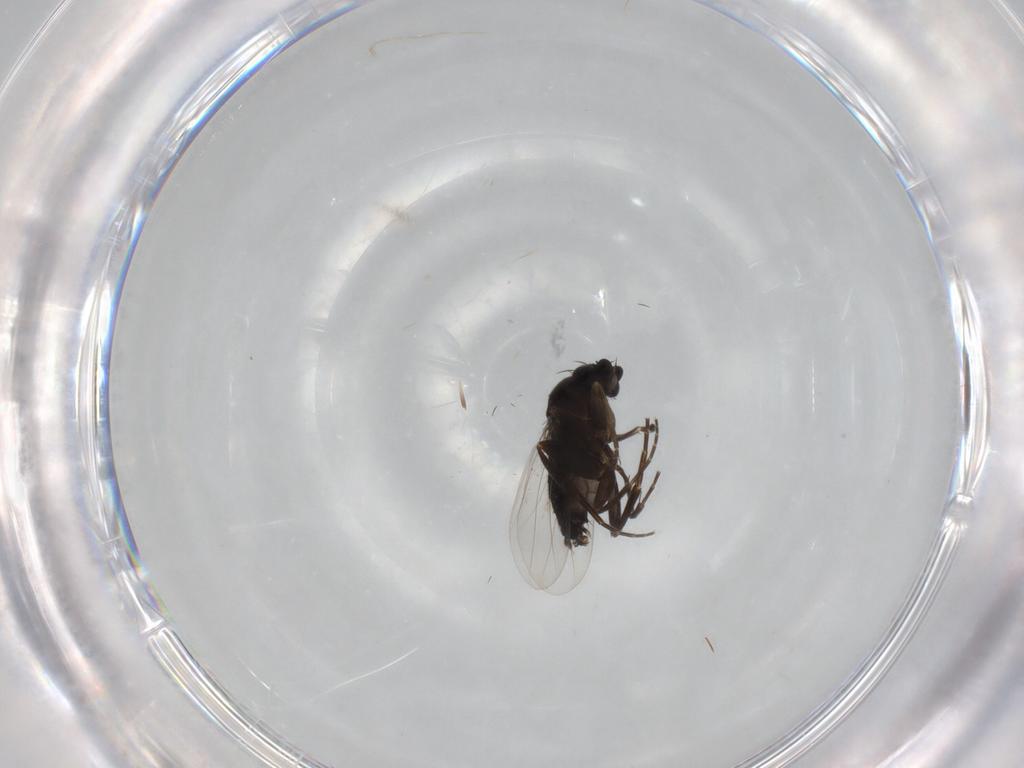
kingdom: Animalia
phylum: Arthropoda
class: Insecta
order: Diptera
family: Phoridae
